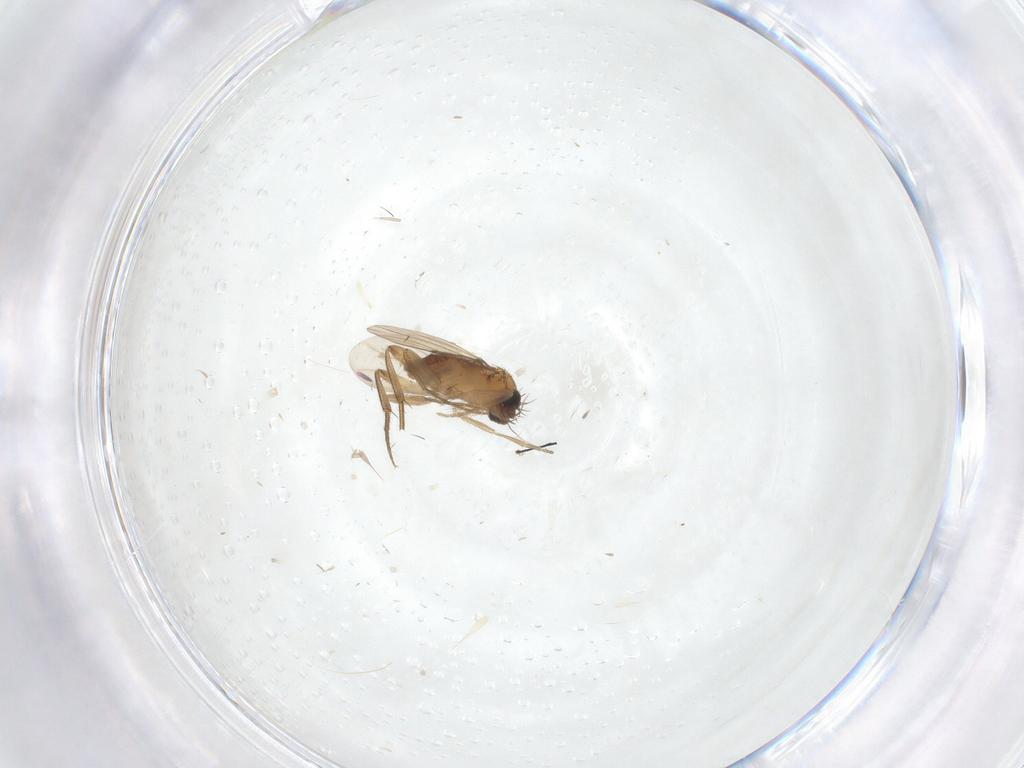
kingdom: Animalia
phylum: Arthropoda
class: Insecta
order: Diptera
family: Phoridae
